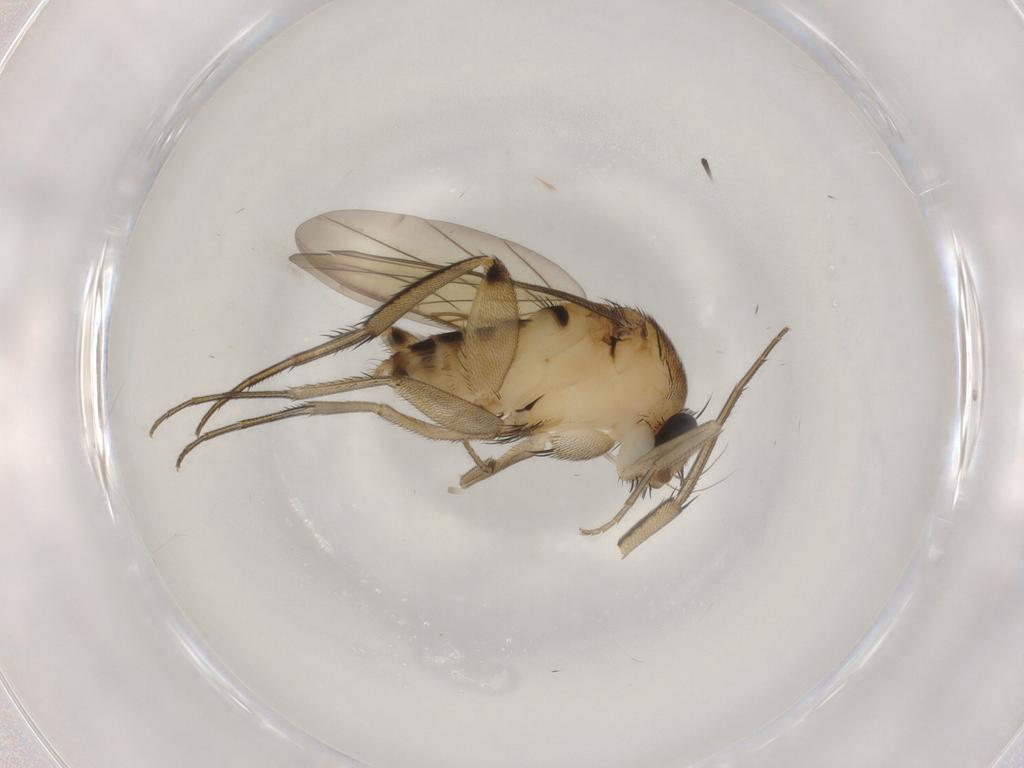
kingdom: Animalia
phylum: Arthropoda
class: Insecta
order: Diptera
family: Phoridae
